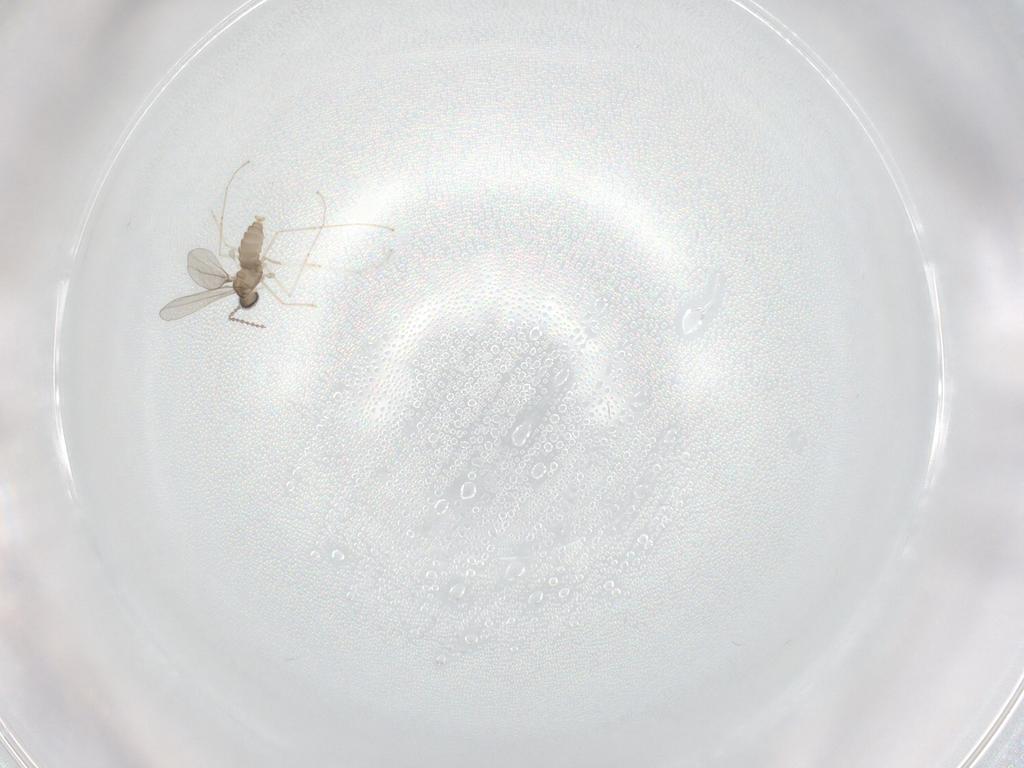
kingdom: Animalia
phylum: Arthropoda
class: Insecta
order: Diptera
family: Ceratopogonidae
